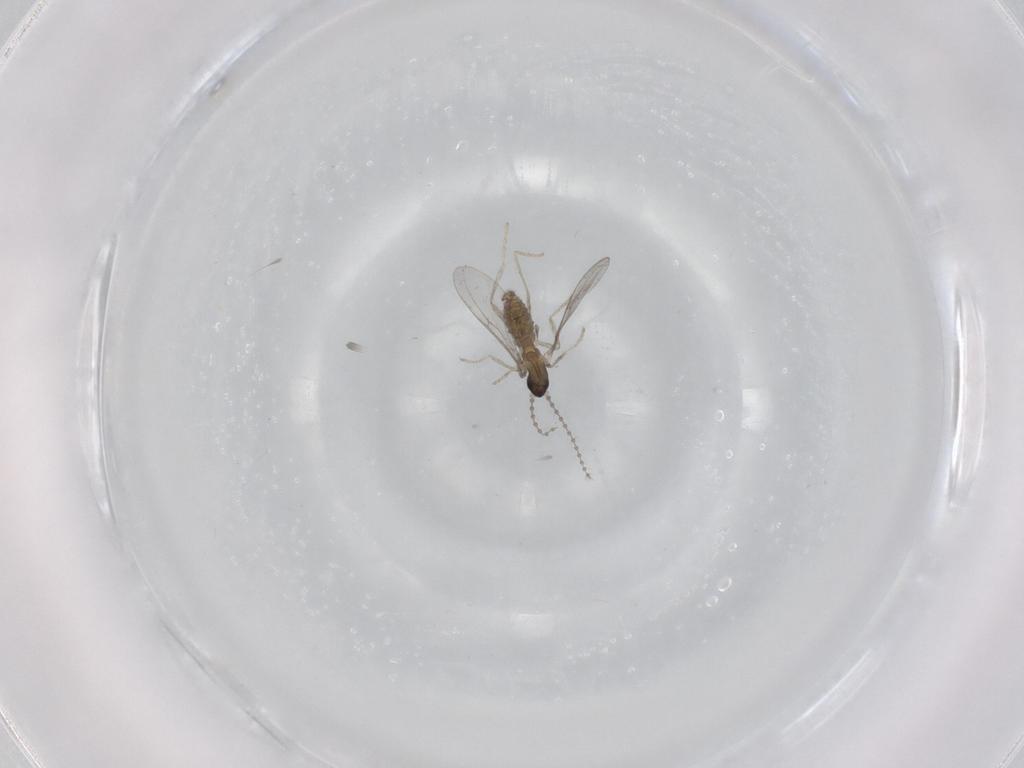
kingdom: Animalia
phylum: Arthropoda
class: Insecta
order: Diptera
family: Cecidomyiidae
